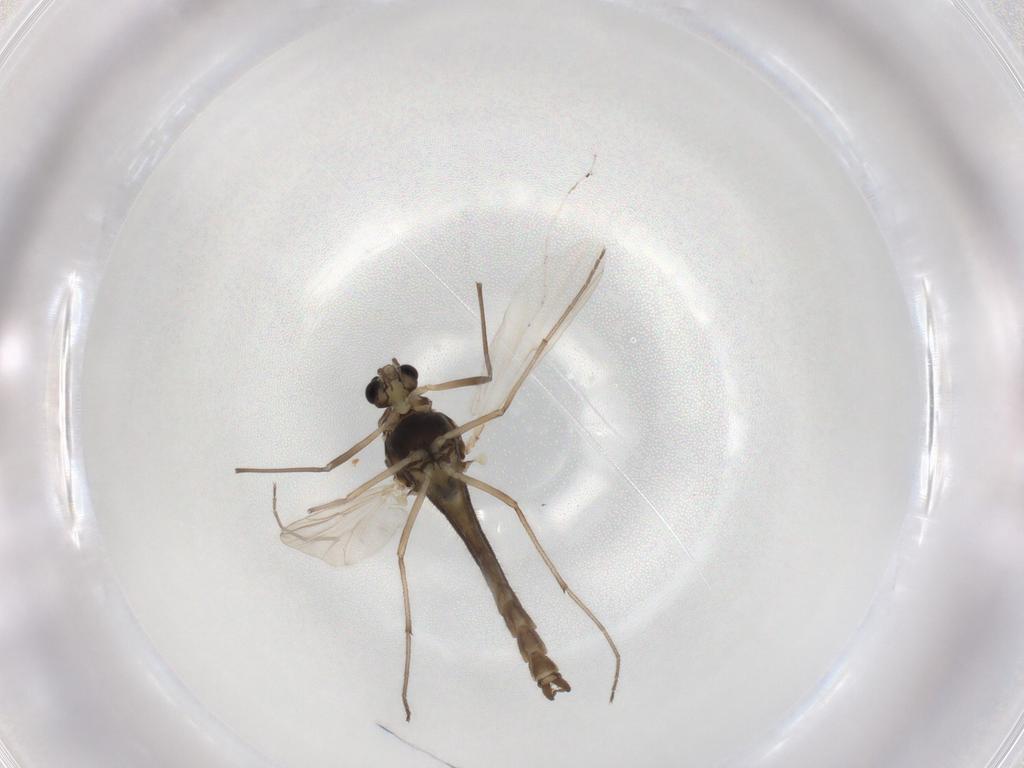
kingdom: Animalia
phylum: Arthropoda
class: Insecta
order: Diptera
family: Chironomidae
